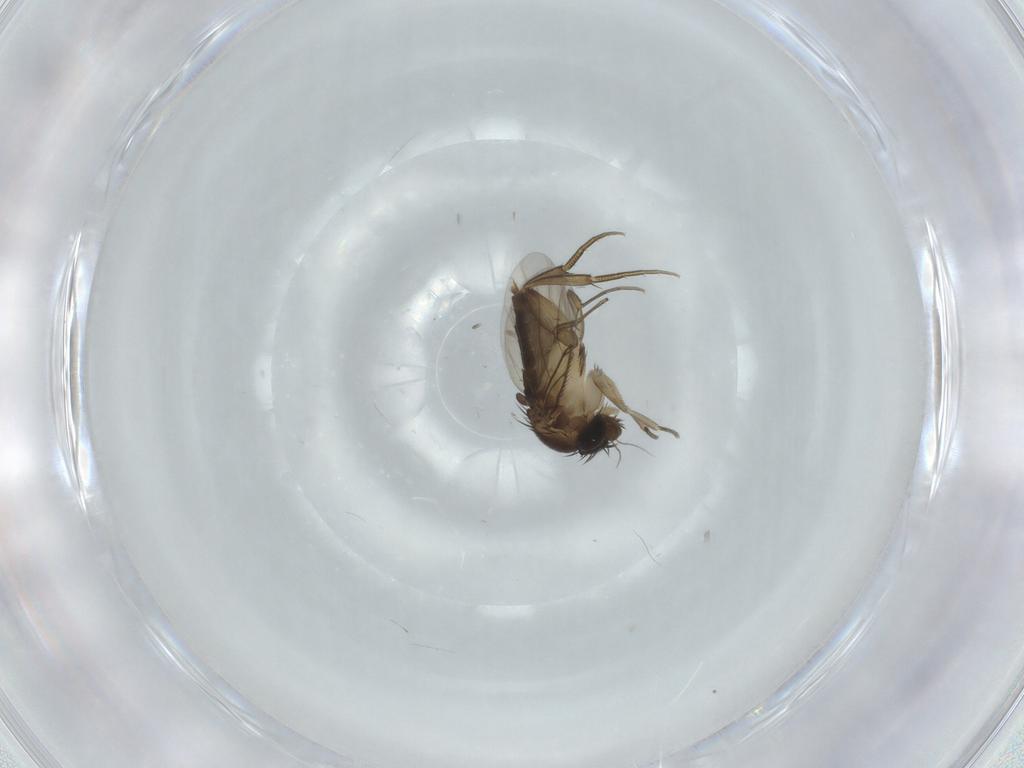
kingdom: Animalia
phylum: Arthropoda
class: Insecta
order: Diptera
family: Phoridae
